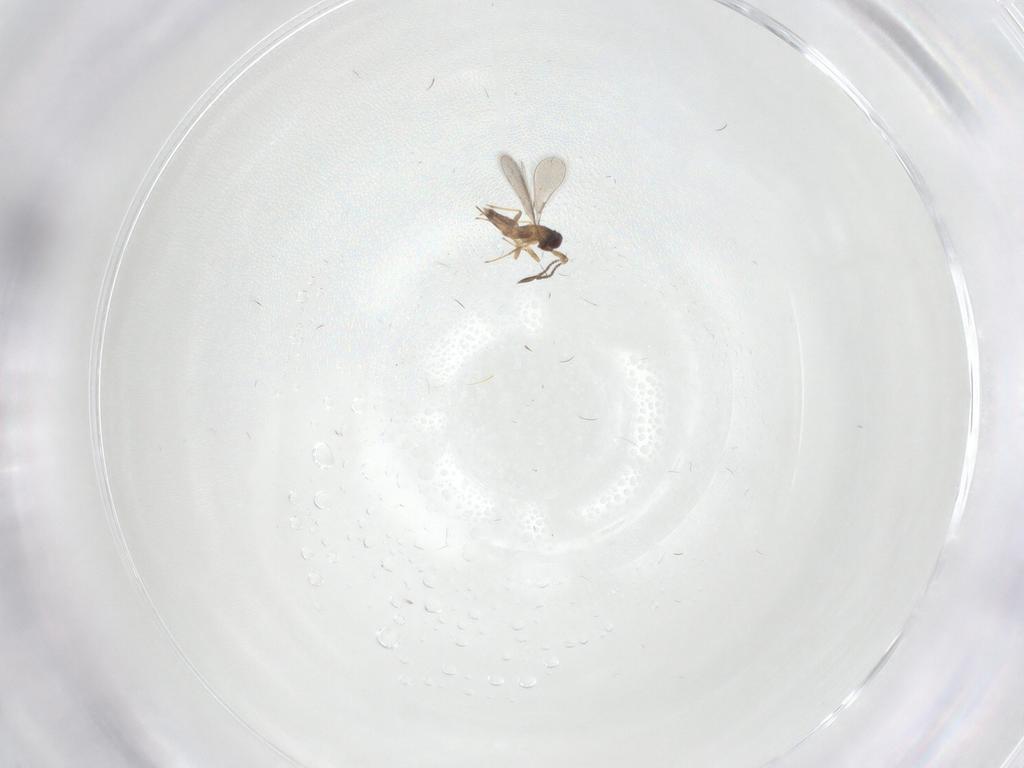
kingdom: Animalia
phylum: Arthropoda
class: Insecta
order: Hymenoptera
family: Mymaridae
